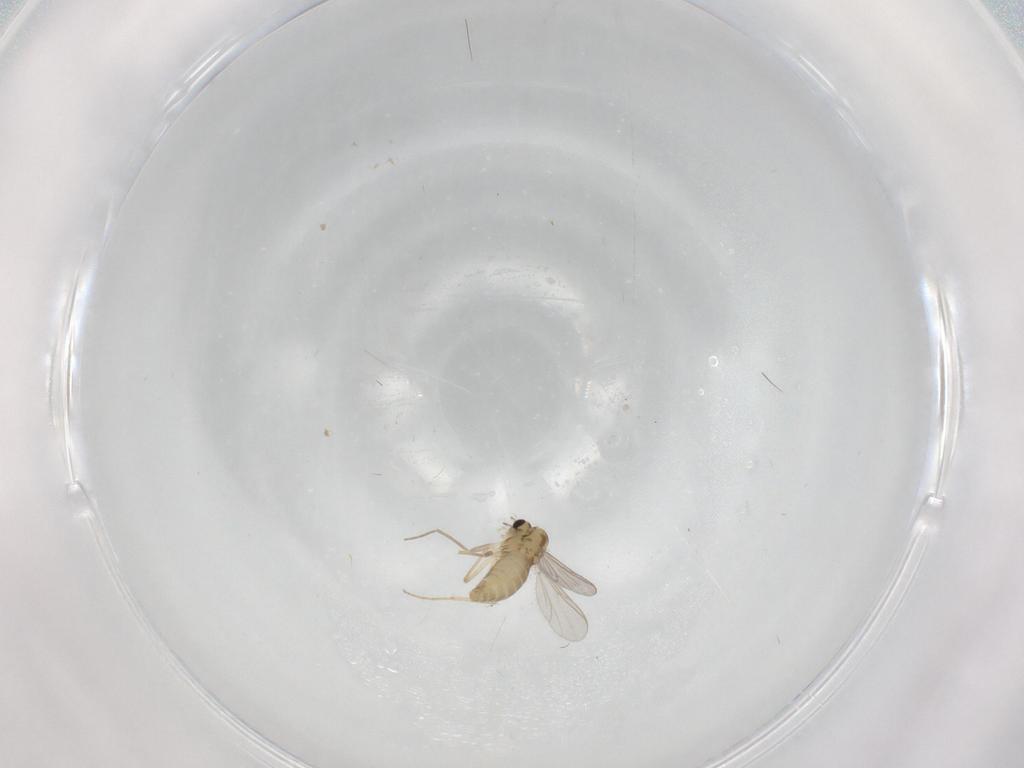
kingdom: Animalia
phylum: Arthropoda
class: Insecta
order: Diptera
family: Chironomidae
